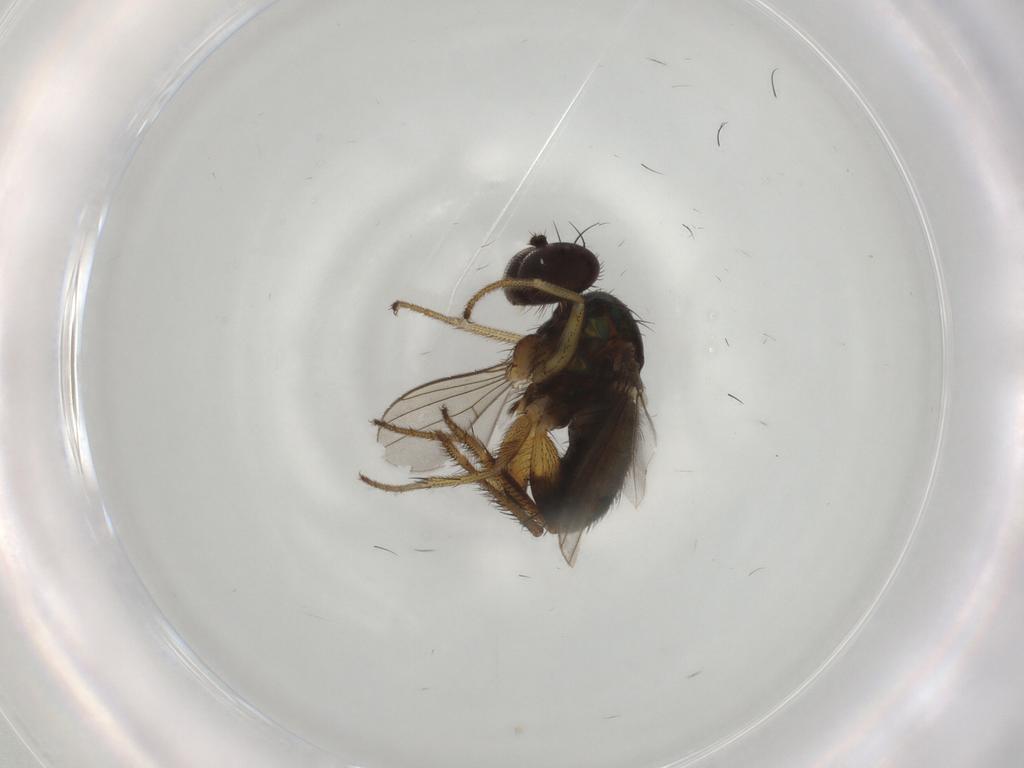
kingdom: Animalia
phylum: Arthropoda
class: Insecta
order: Diptera
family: Dolichopodidae
